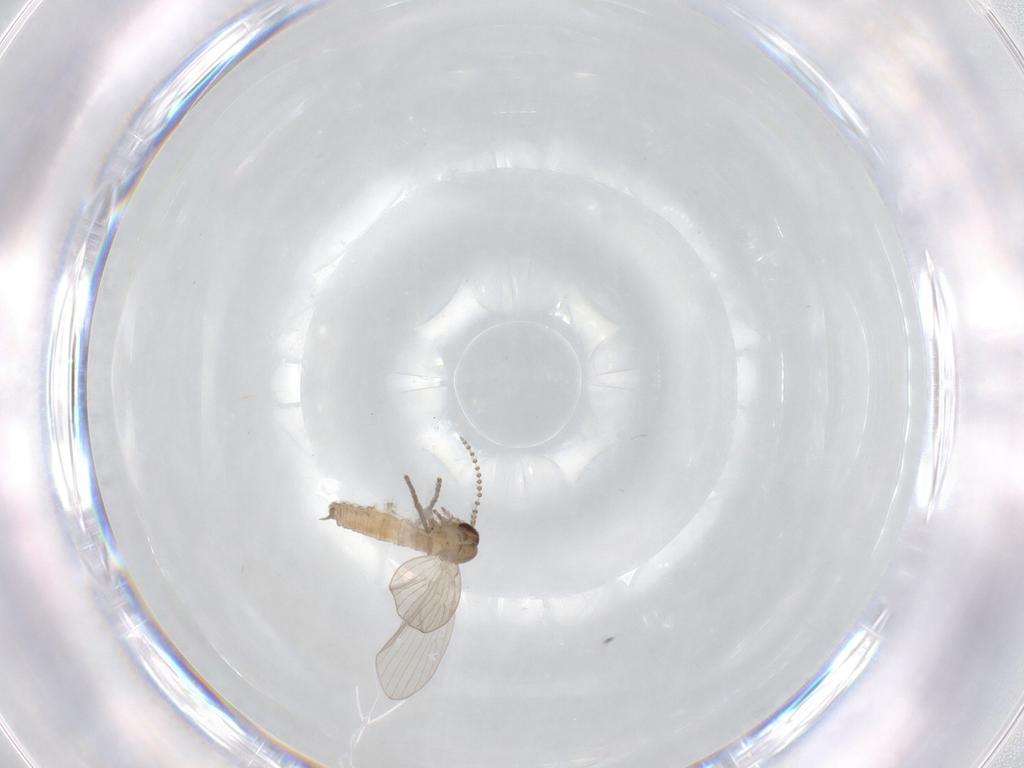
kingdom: Animalia
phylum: Arthropoda
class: Insecta
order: Diptera
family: Psychodidae
